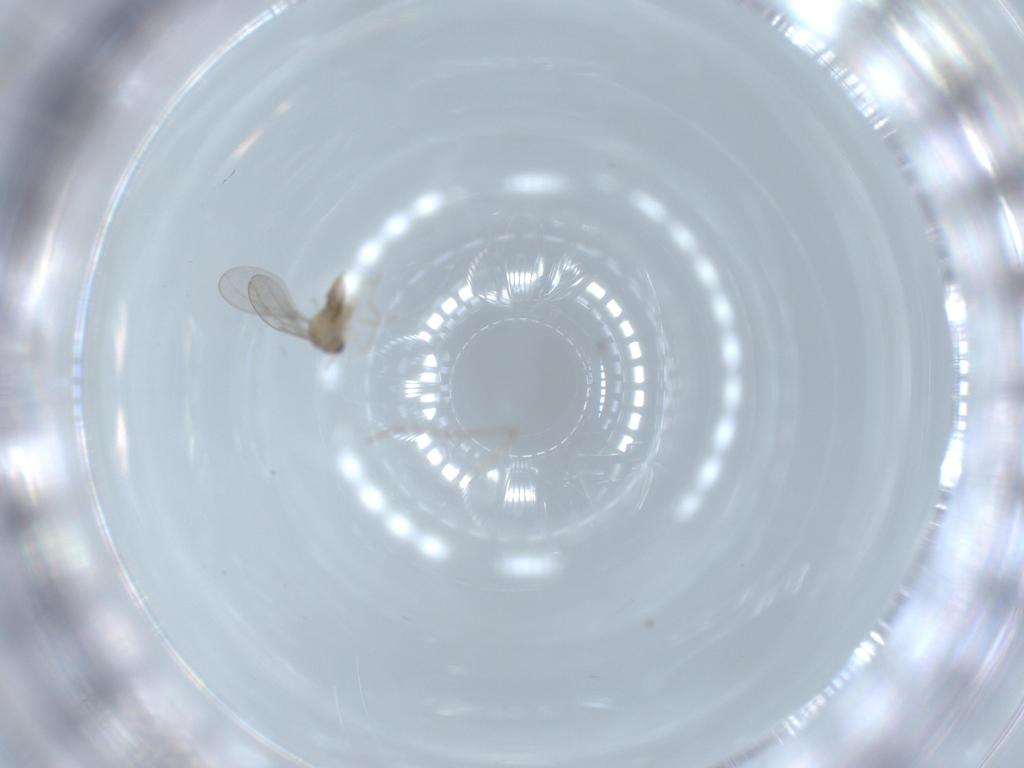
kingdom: Animalia
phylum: Arthropoda
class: Insecta
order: Diptera
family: Cecidomyiidae
